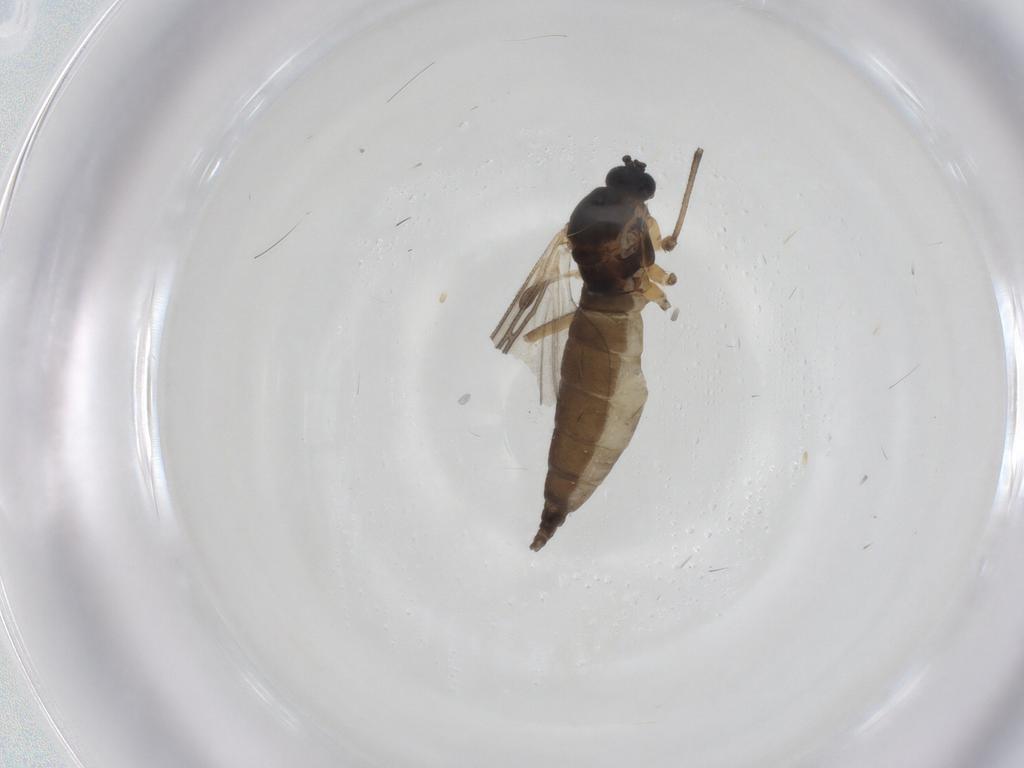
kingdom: Animalia
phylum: Arthropoda
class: Insecta
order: Diptera
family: Sciaridae
